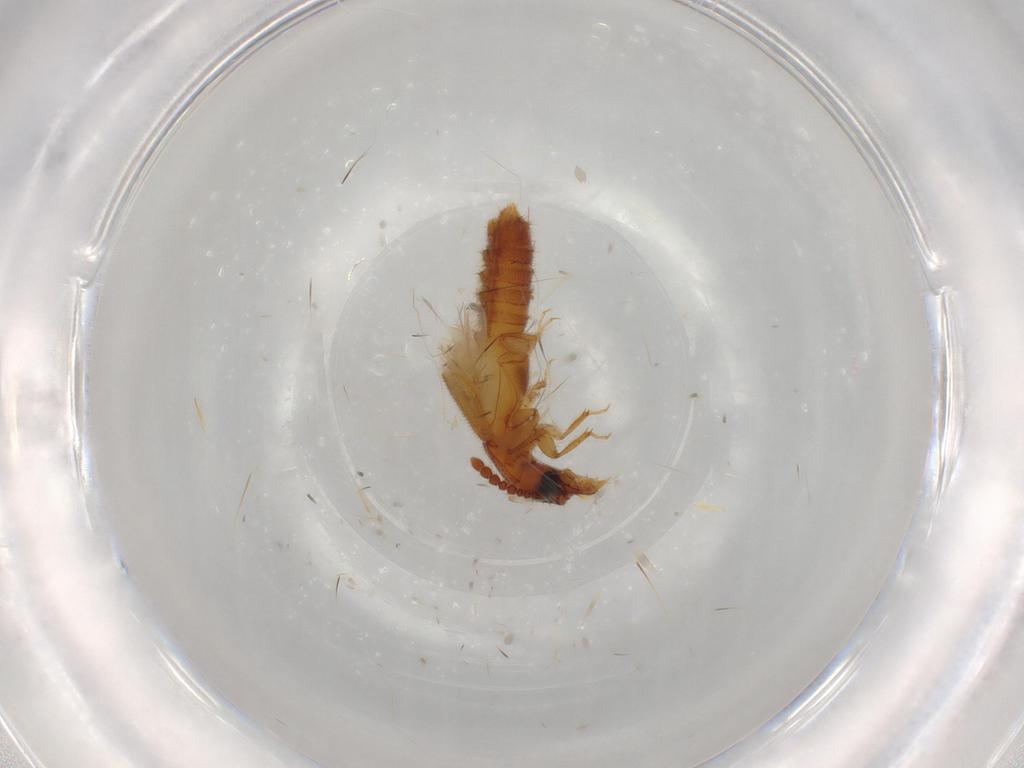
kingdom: Animalia
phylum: Arthropoda
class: Insecta
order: Coleoptera
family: Staphylinidae
